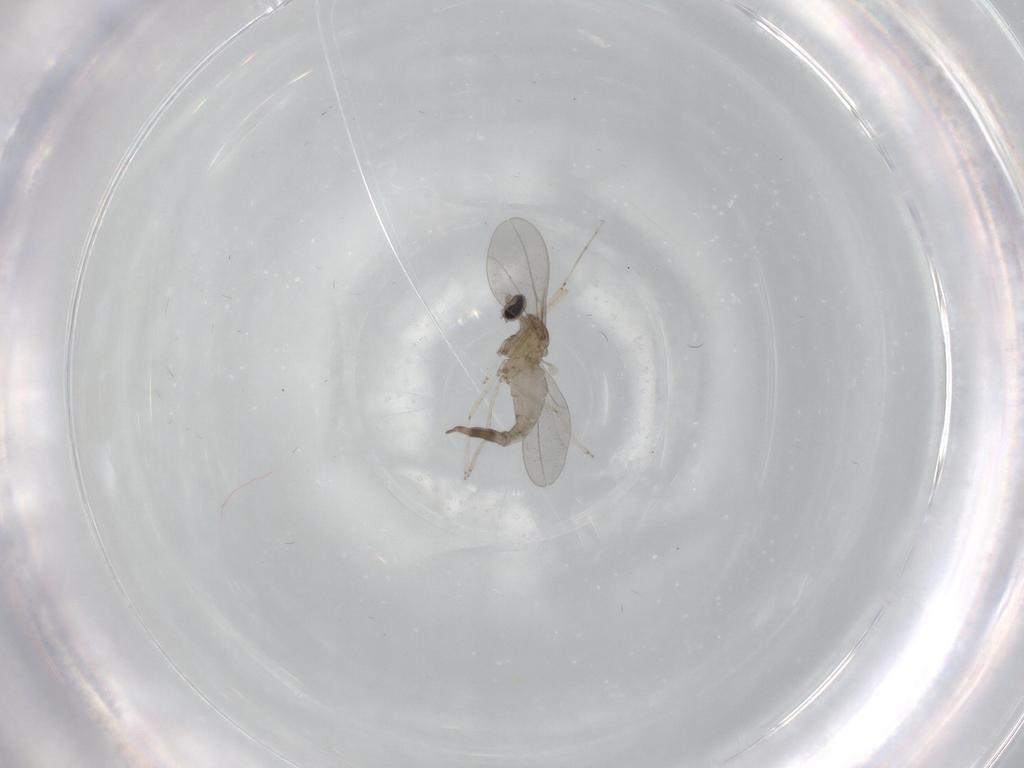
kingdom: Animalia
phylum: Arthropoda
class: Insecta
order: Diptera
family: Cecidomyiidae
